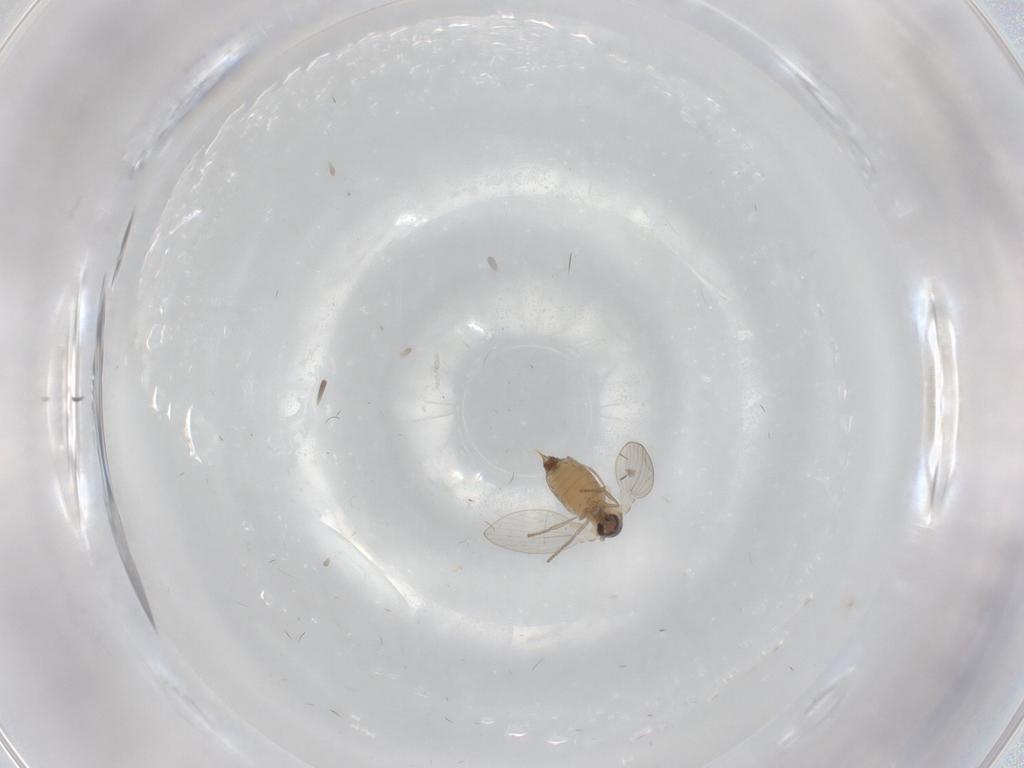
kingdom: Animalia
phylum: Arthropoda
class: Insecta
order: Diptera
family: Psychodidae
